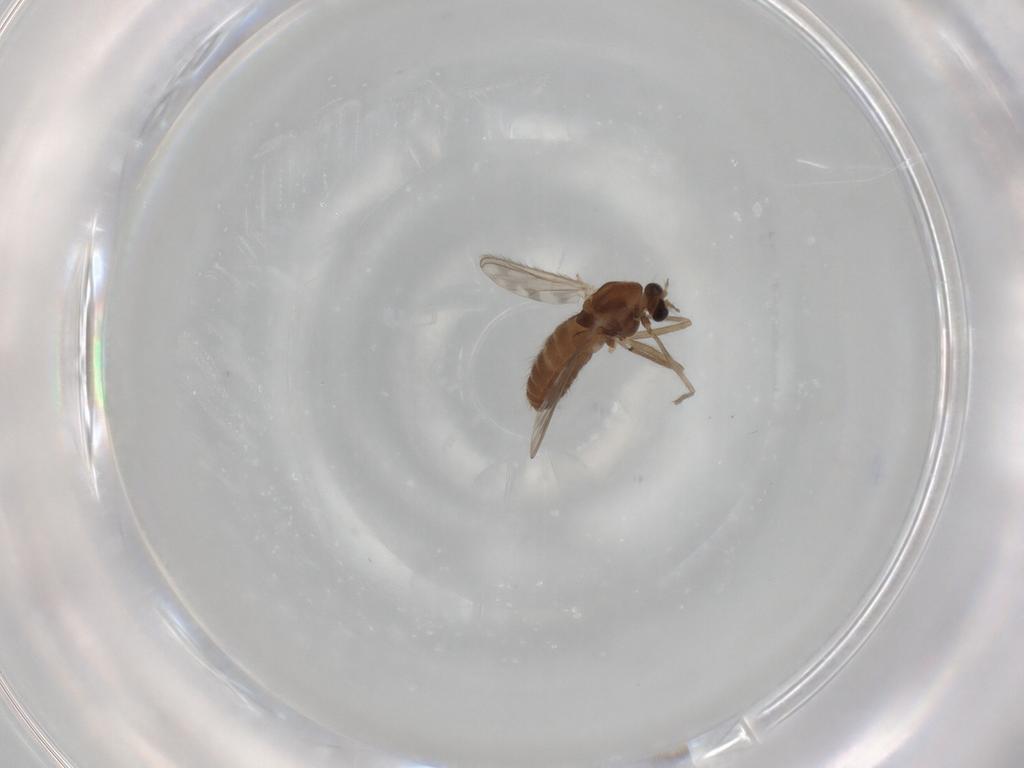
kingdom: Animalia
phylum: Arthropoda
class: Insecta
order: Diptera
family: Chironomidae
